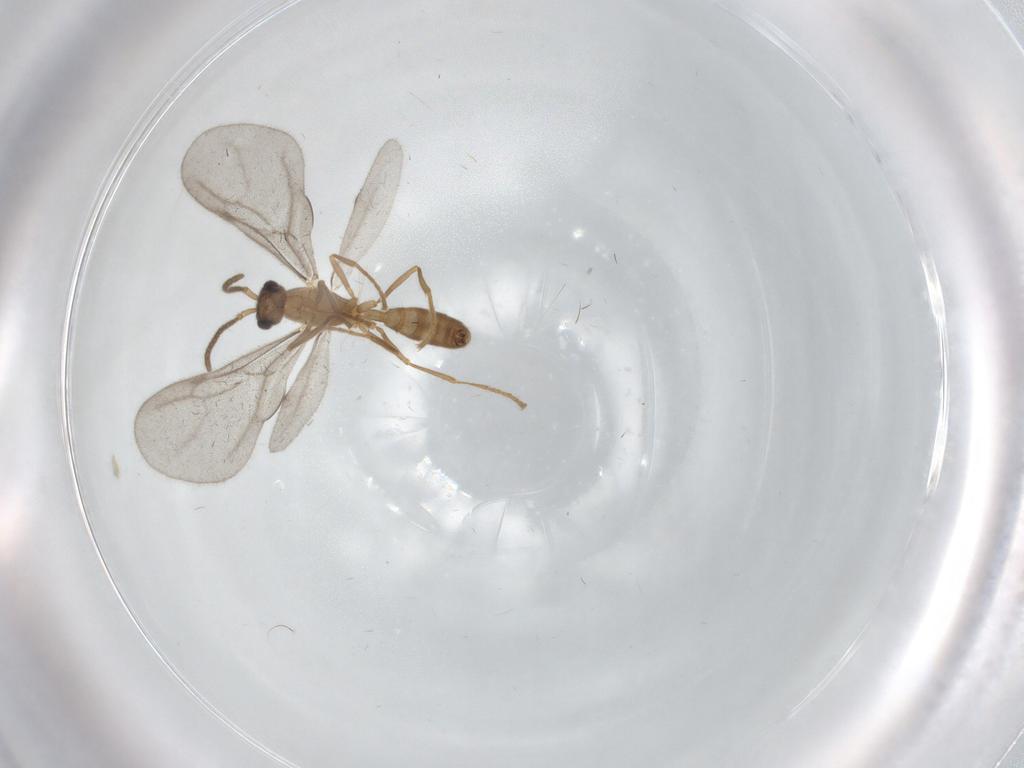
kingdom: Animalia
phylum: Arthropoda
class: Insecta
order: Hymenoptera
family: Formicidae
